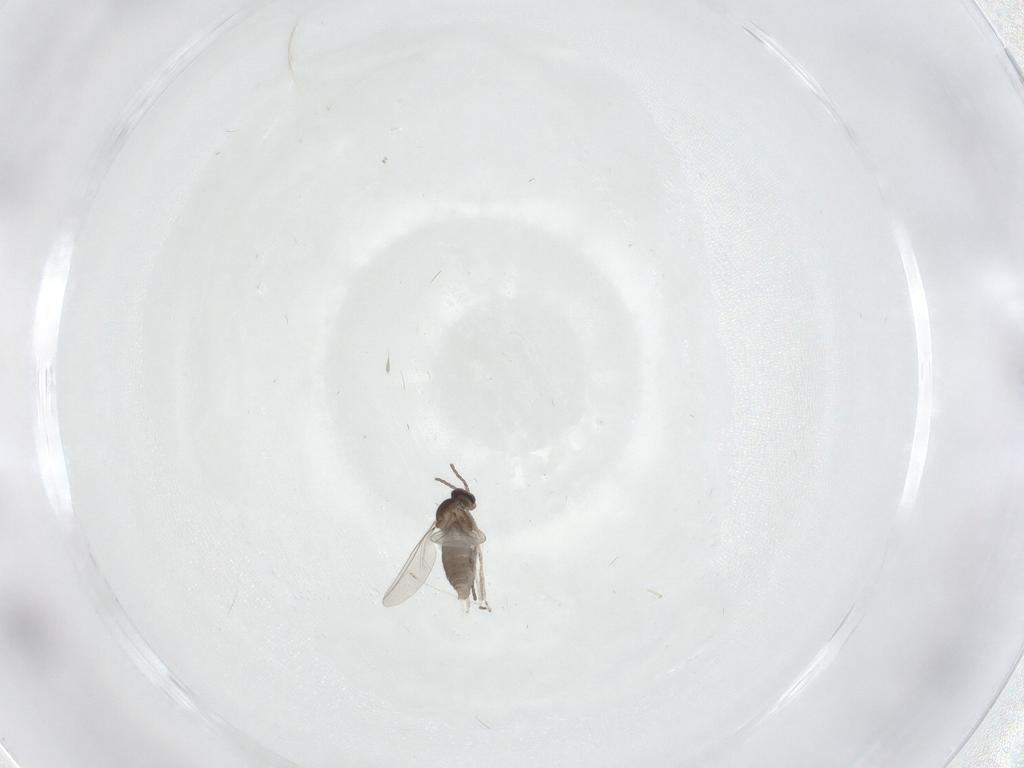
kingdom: Animalia
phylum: Arthropoda
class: Insecta
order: Diptera
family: Cecidomyiidae
